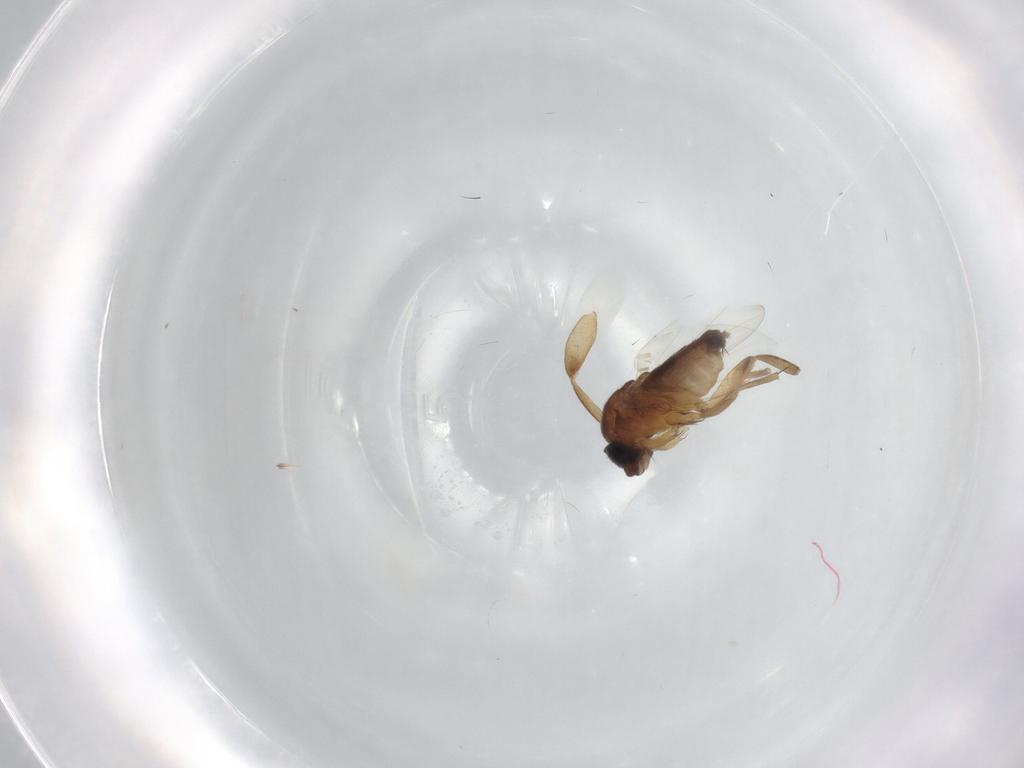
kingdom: Animalia
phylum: Arthropoda
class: Insecta
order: Diptera
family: Phoridae
